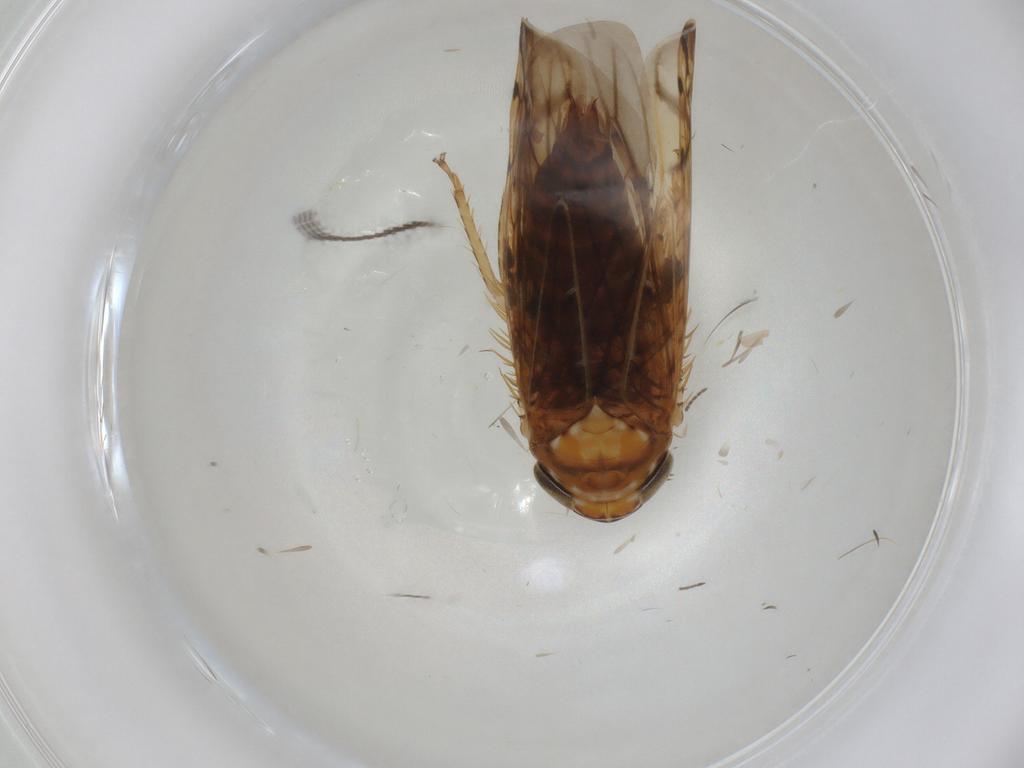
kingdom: Animalia
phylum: Arthropoda
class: Insecta
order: Hemiptera
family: Cicadellidae
